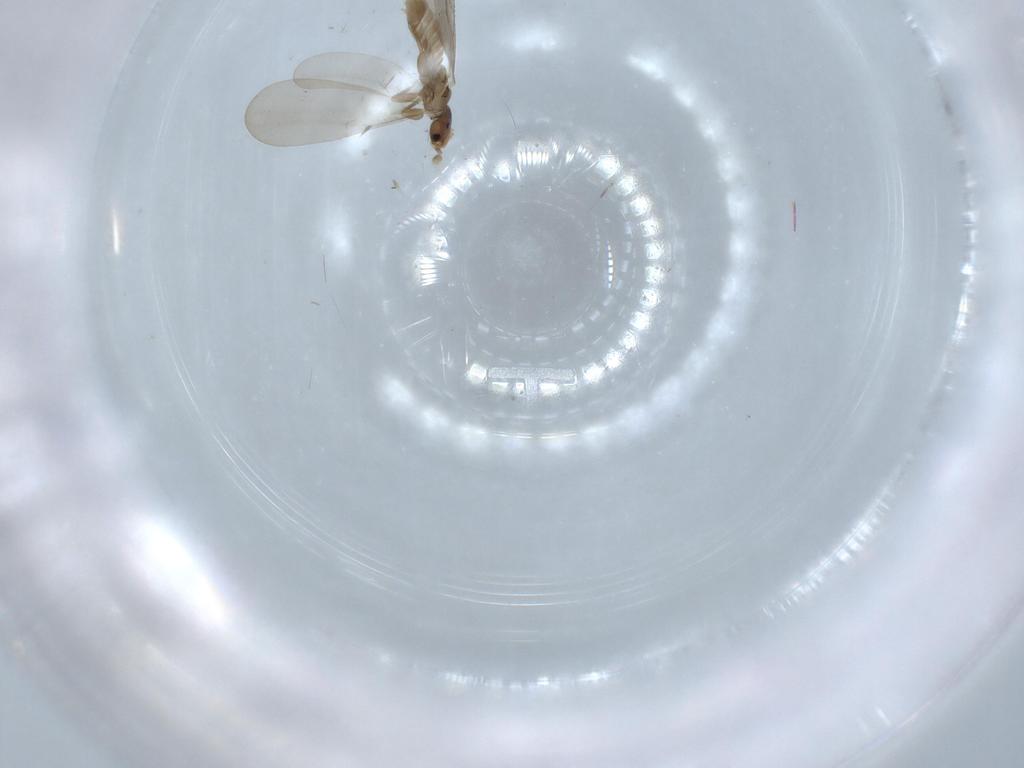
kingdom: Animalia
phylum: Arthropoda
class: Insecta
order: Psocodea
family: Liposcelididae
